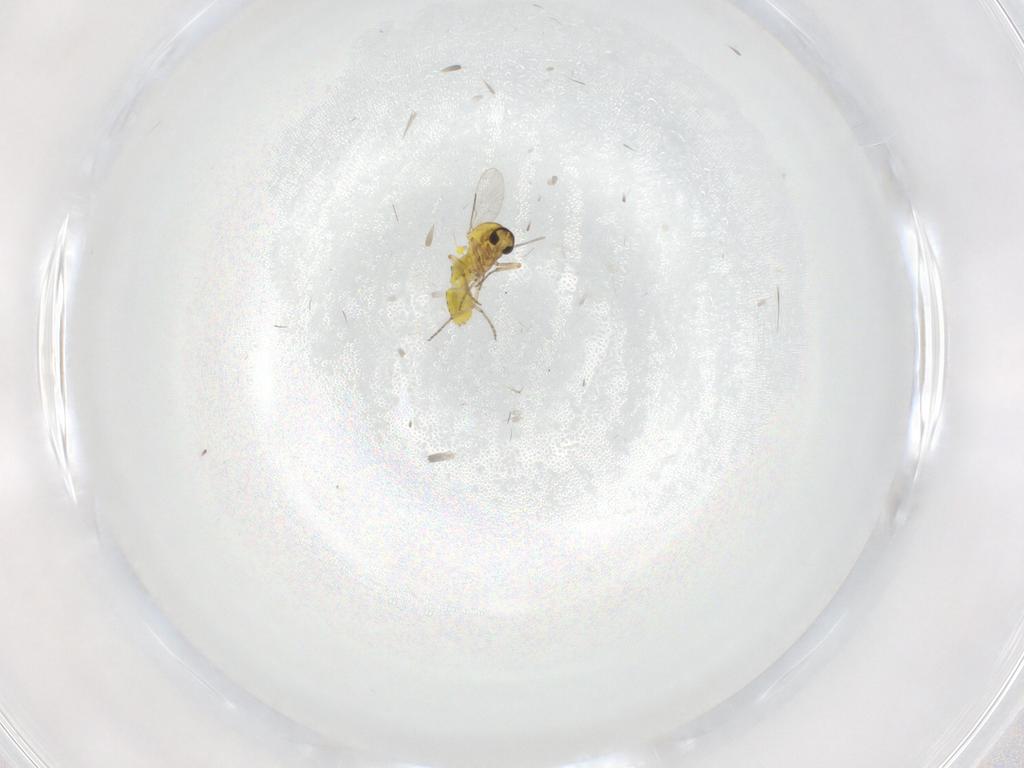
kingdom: Animalia
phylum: Arthropoda
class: Insecta
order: Diptera
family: Ceratopogonidae
